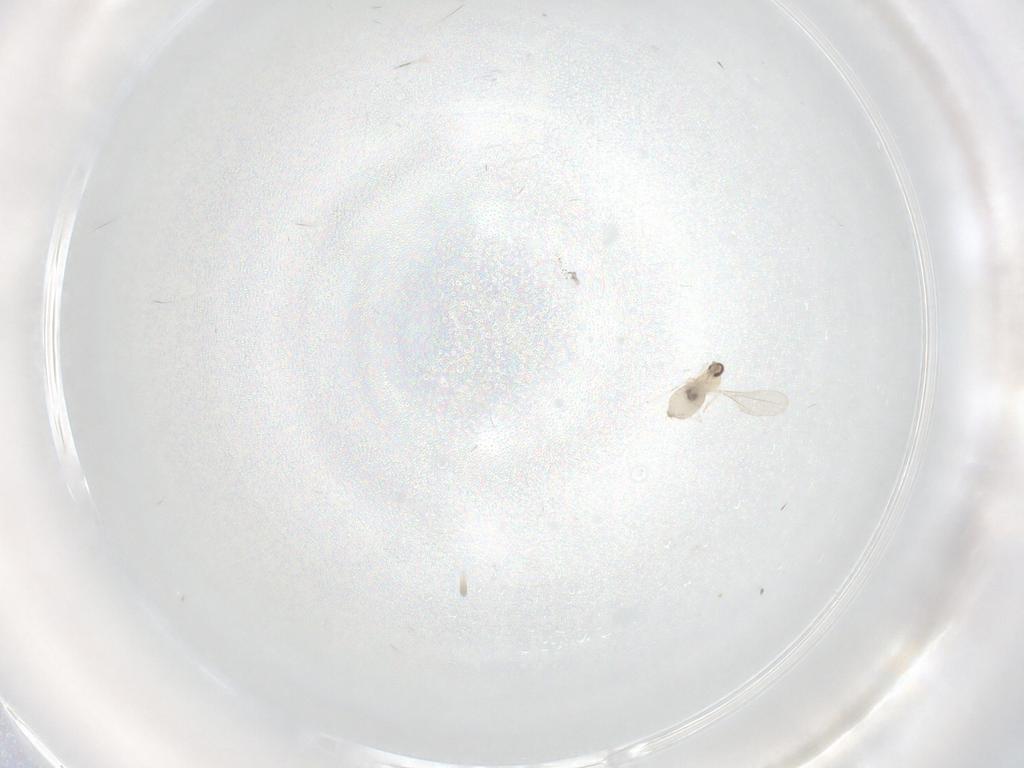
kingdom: Animalia
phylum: Arthropoda
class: Insecta
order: Diptera
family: Cecidomyiidae
